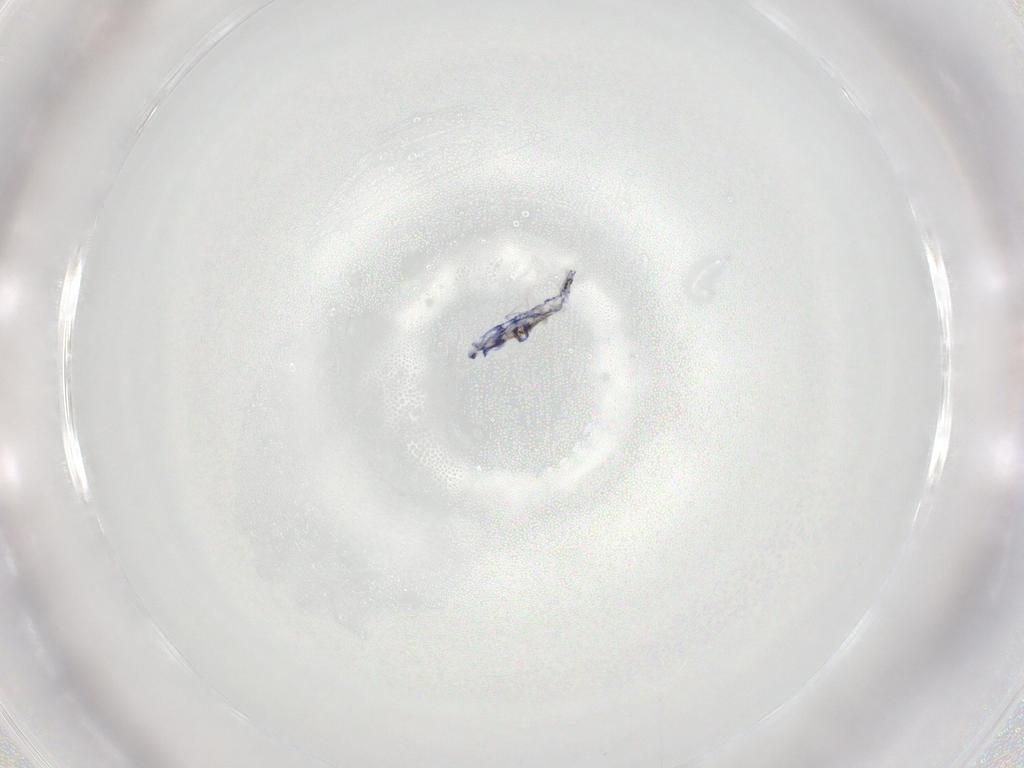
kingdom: Animalia
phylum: Arthropoda
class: Collembola
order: Entomobryomorpha
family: Entomobryidae
